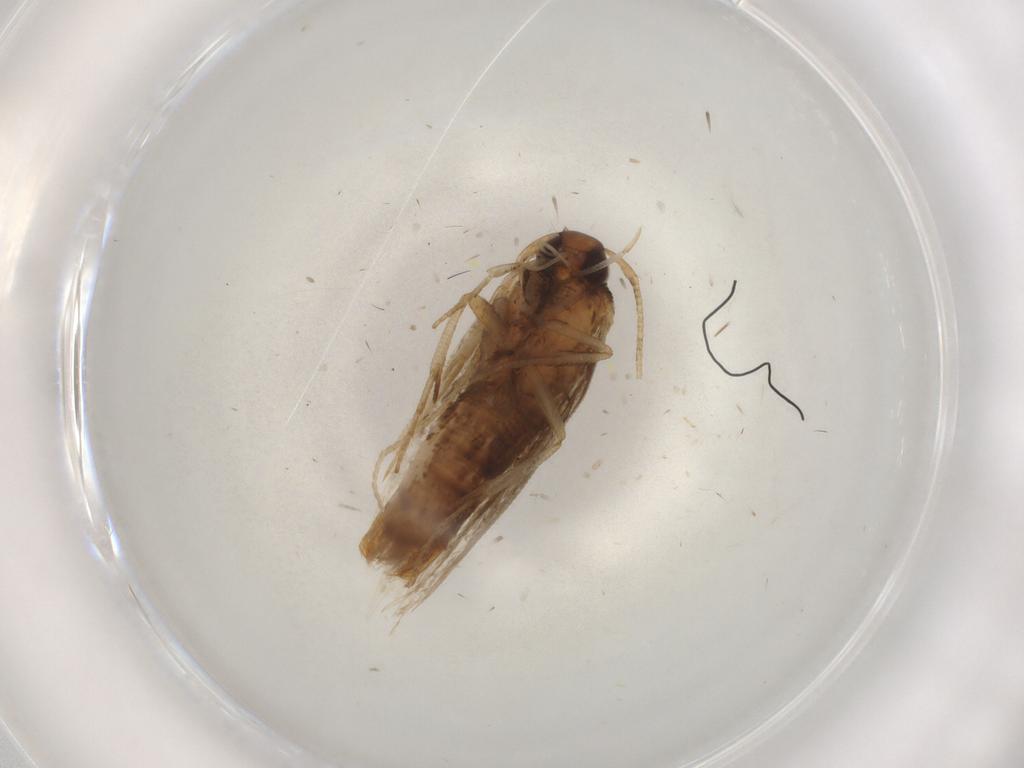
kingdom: Animalia
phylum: Arthropoda
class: Insecta
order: Lepidoptera
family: Cosmopterigidae
